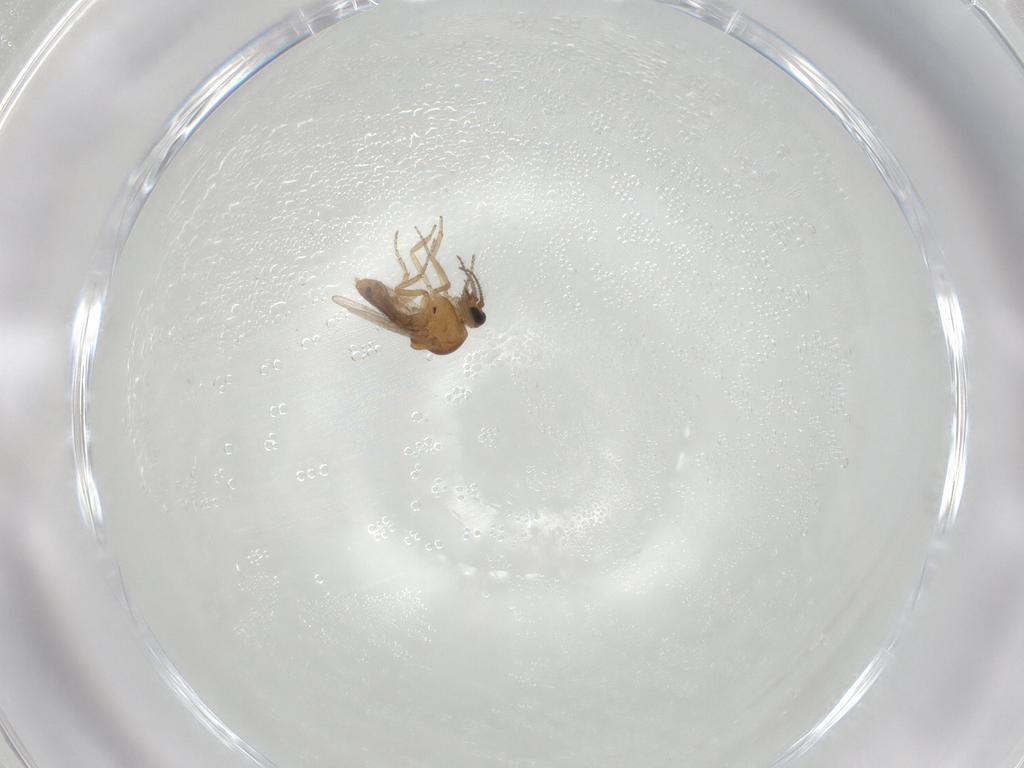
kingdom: Animalia
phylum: Arthropoda
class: Insecta
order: Diptera
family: Ceratopogonidae
